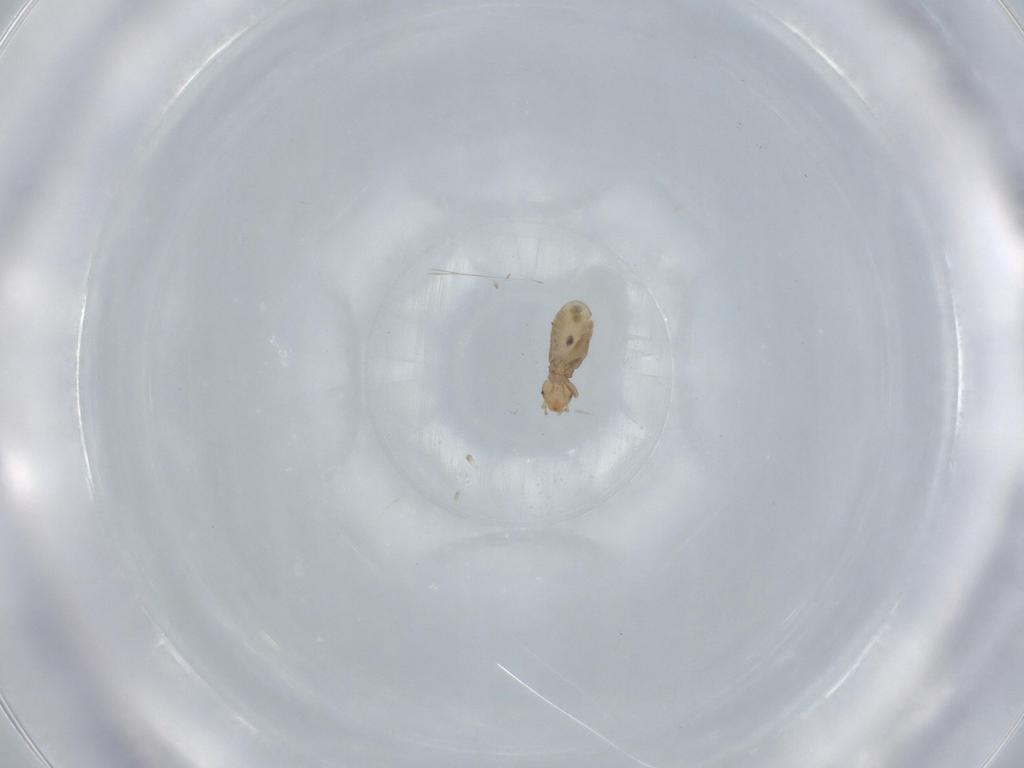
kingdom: Animalia
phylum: Arthropoda
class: Insecta
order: Psocodea
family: Liposcelididae
